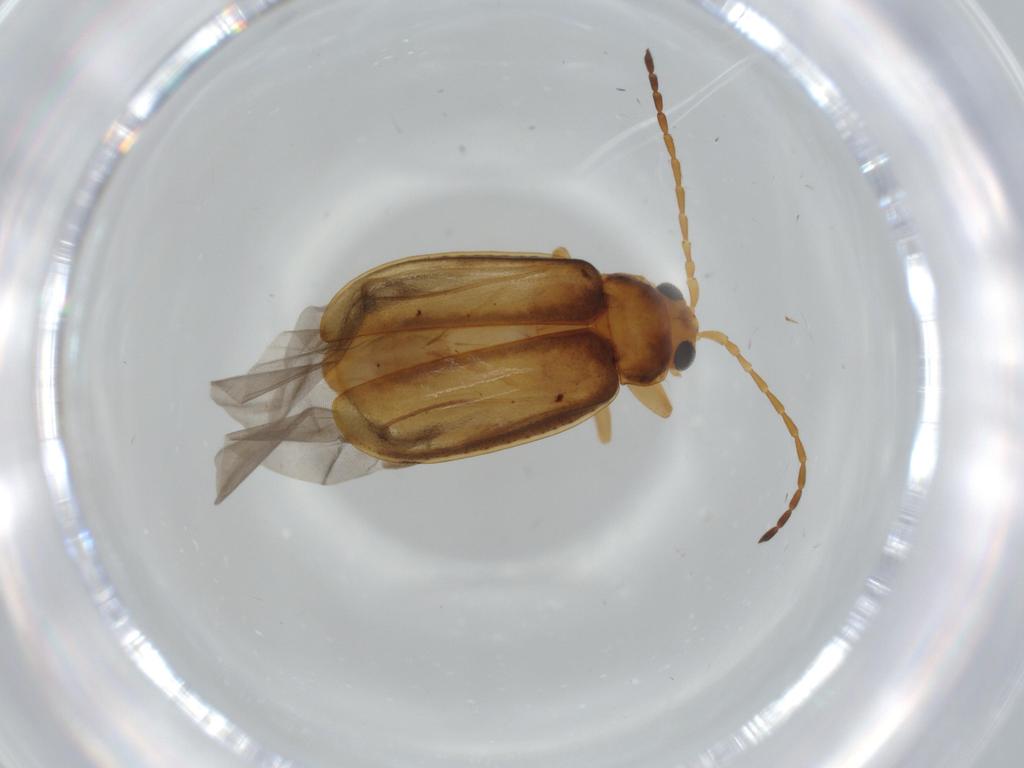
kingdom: Animalia
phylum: Arthropoda
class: Insecta
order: Coleoptera
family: Chrysomelidae
